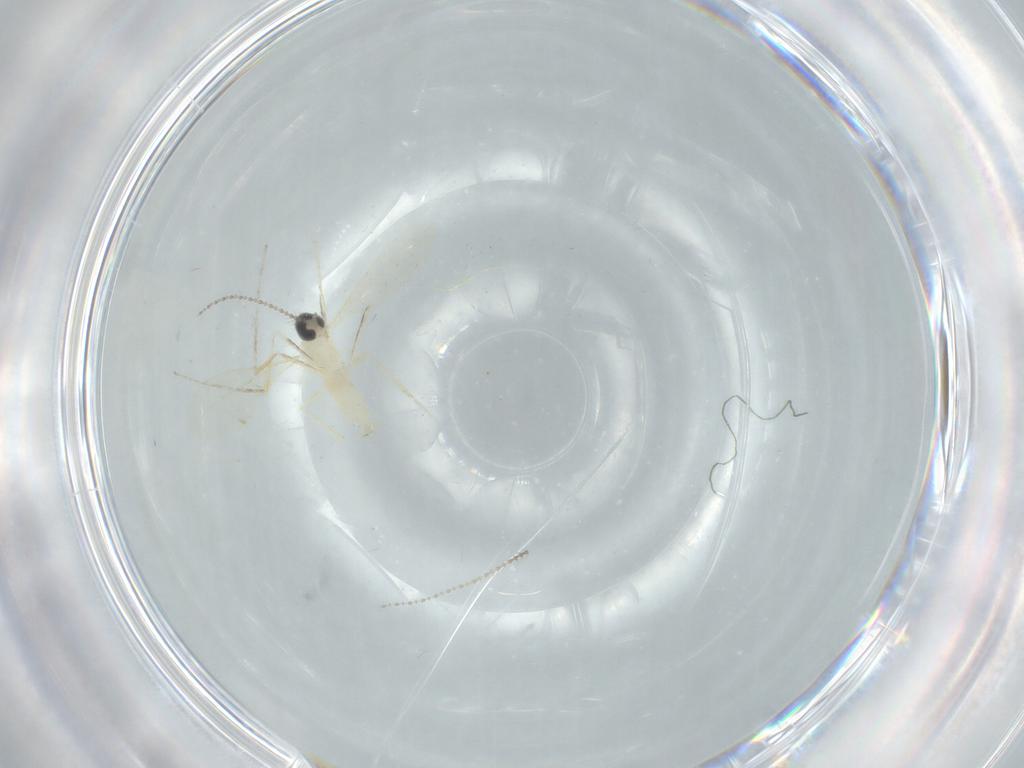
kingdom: Animalia
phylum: Arthropoda
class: Insecta
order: Diptera
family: Cecidomyiidae
